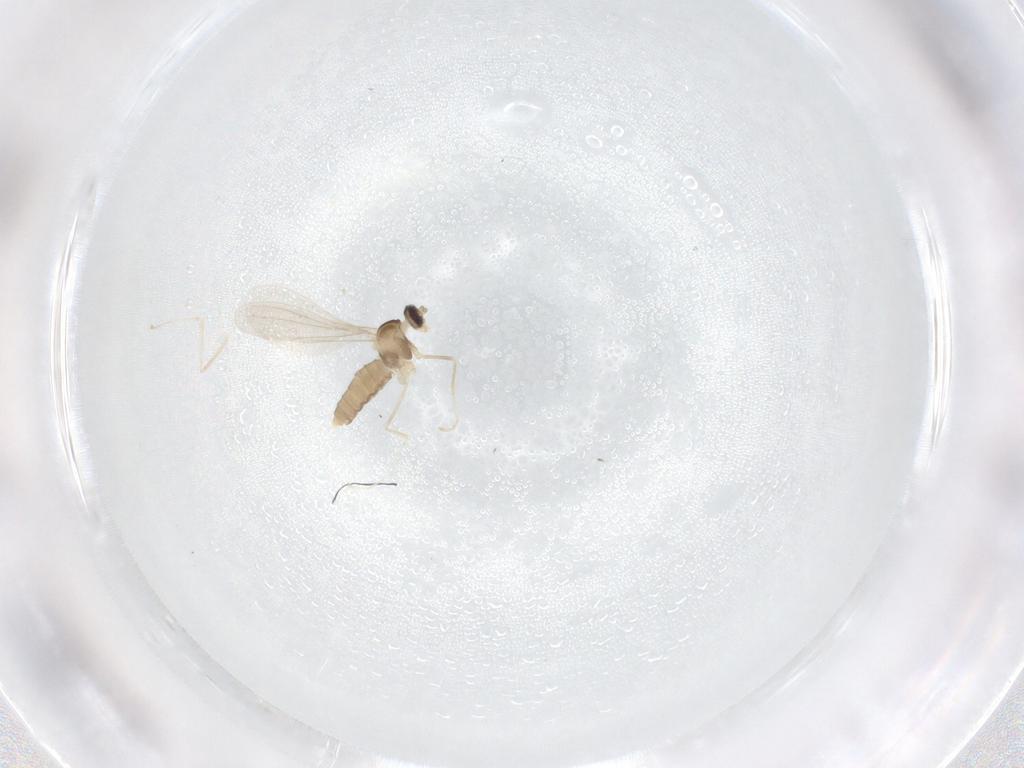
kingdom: Animalia
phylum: Arthropoda
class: Insecta
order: Diptera
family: Cecidomyiidae
